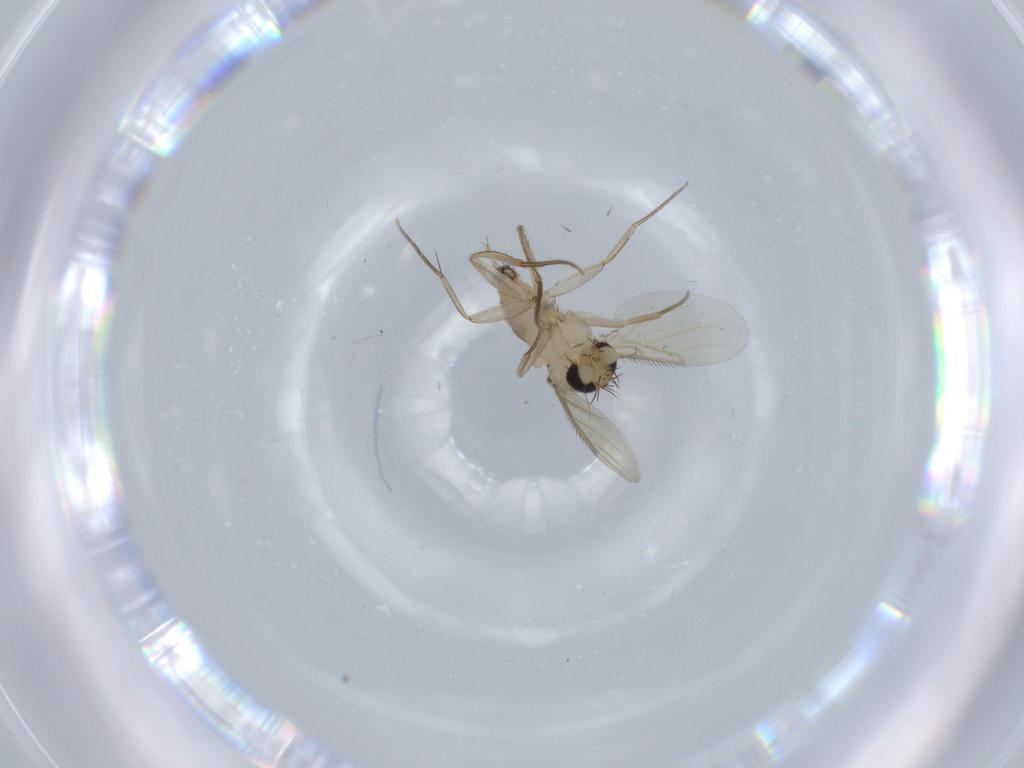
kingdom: Animalia
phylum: Arthropoda
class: Insecta
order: Diptera
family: Phoridae
